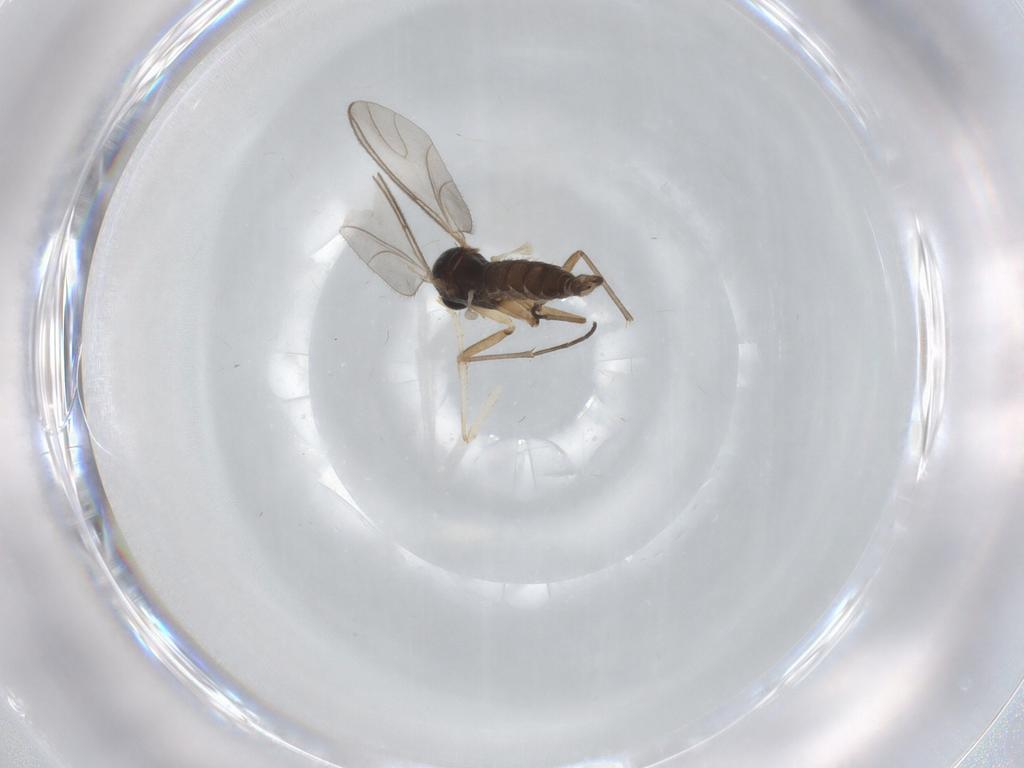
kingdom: Animalia
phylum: Arthropoda
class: Insecta
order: Diptera
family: Sciaridae
